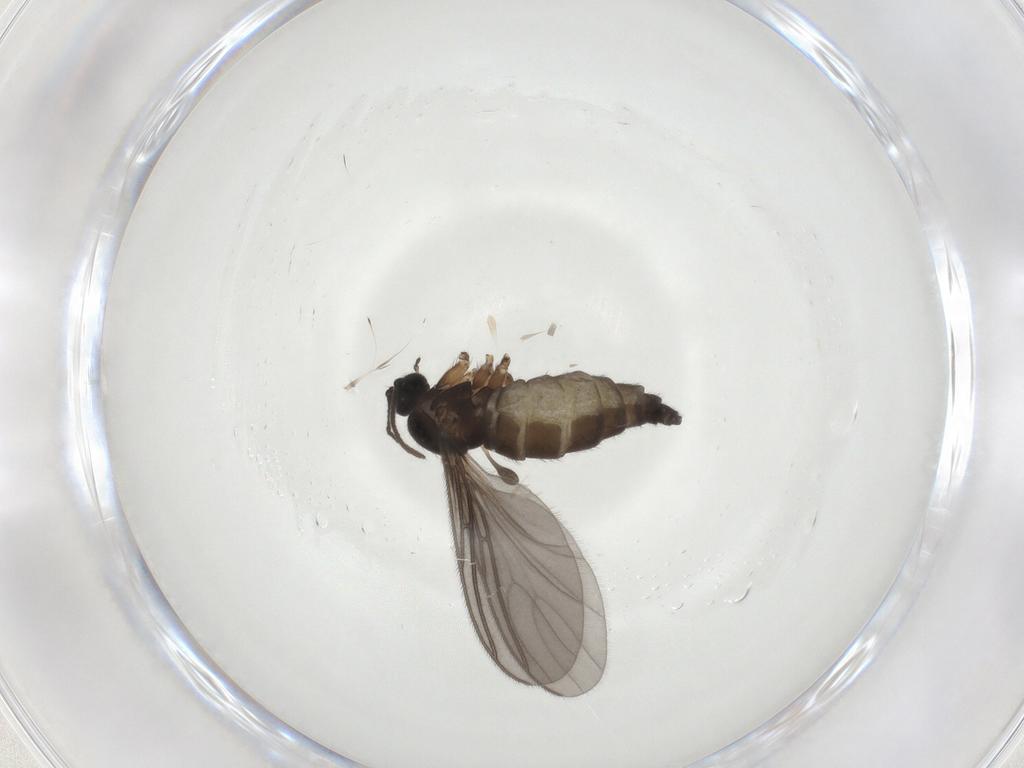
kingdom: Animalia
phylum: Arthropoda
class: Insecta
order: Diptera
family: Sciaridae
